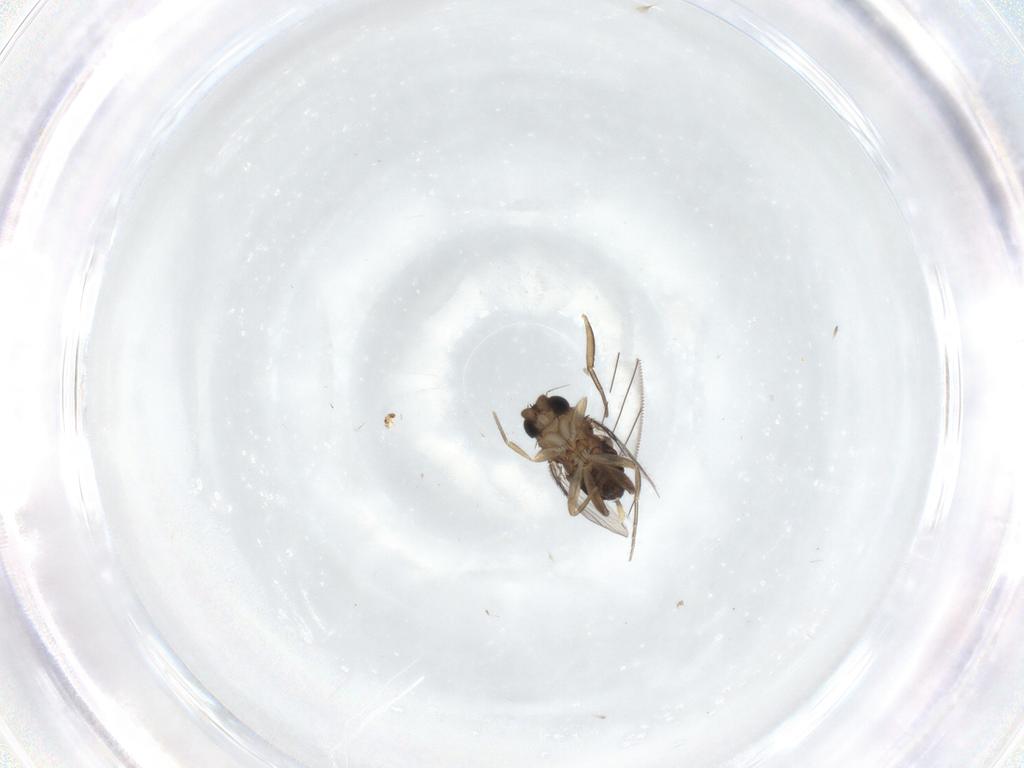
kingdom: Animalia
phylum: Arthropoda
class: Insecta
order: Diptera
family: Phoridae
